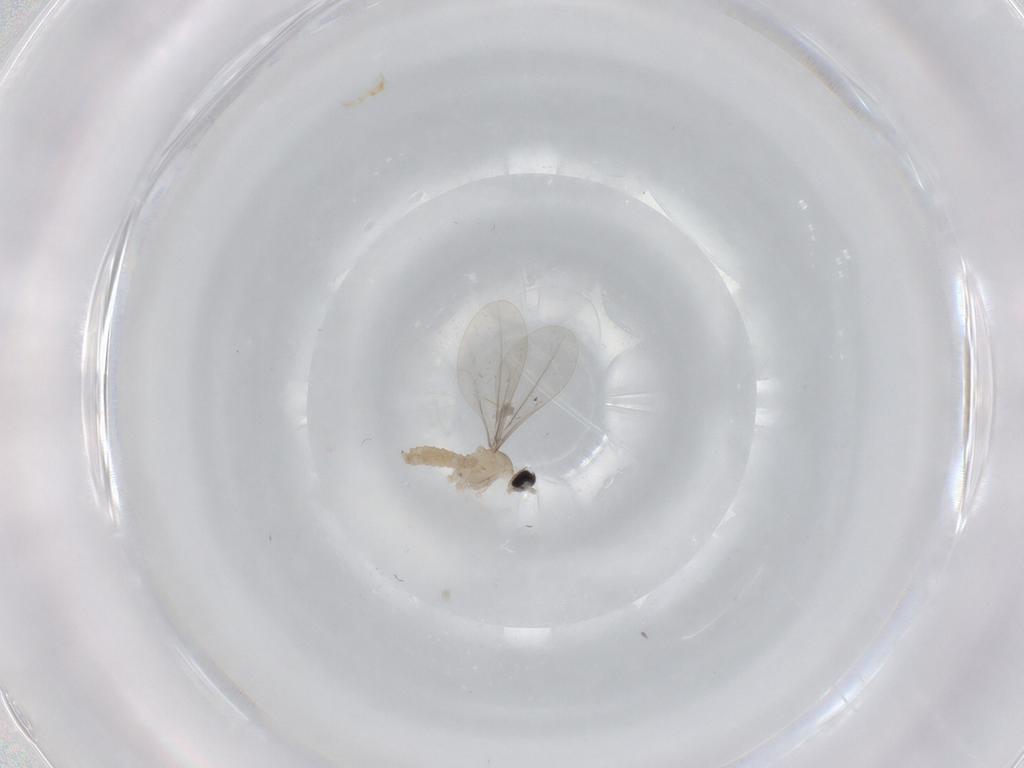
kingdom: Animalia
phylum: Arthropoda
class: Insecta
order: Diptera
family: Cecidomyiidae
